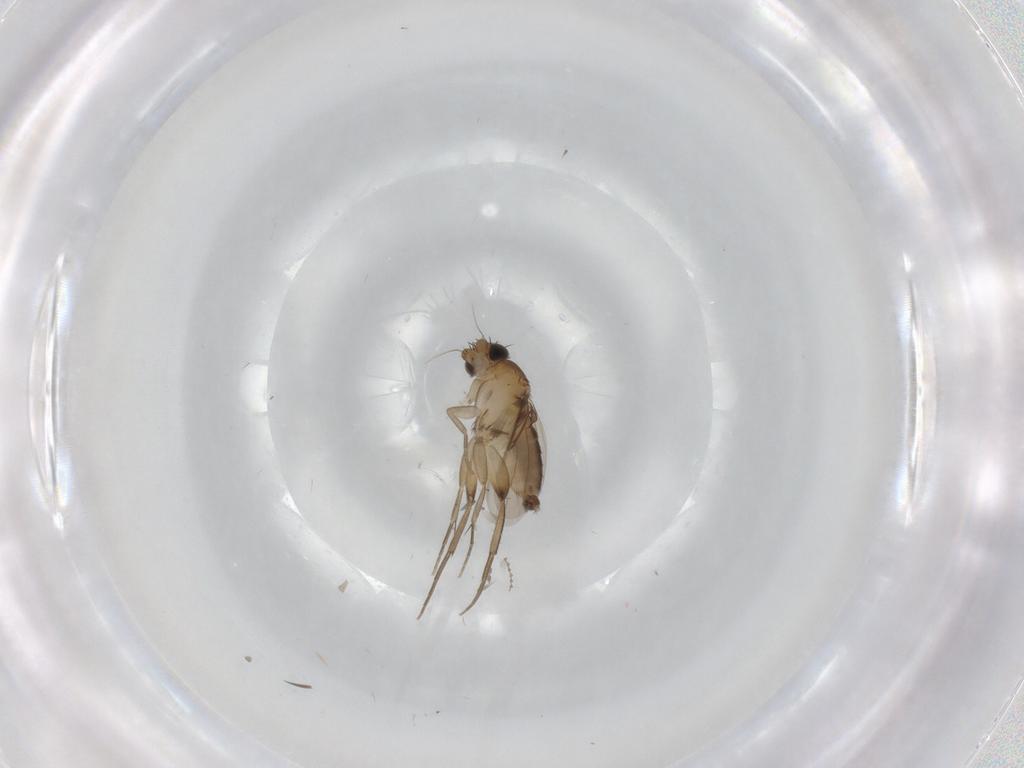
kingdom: Animalia
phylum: Arthropoda
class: Insecta
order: Diptera
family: Phoridae
